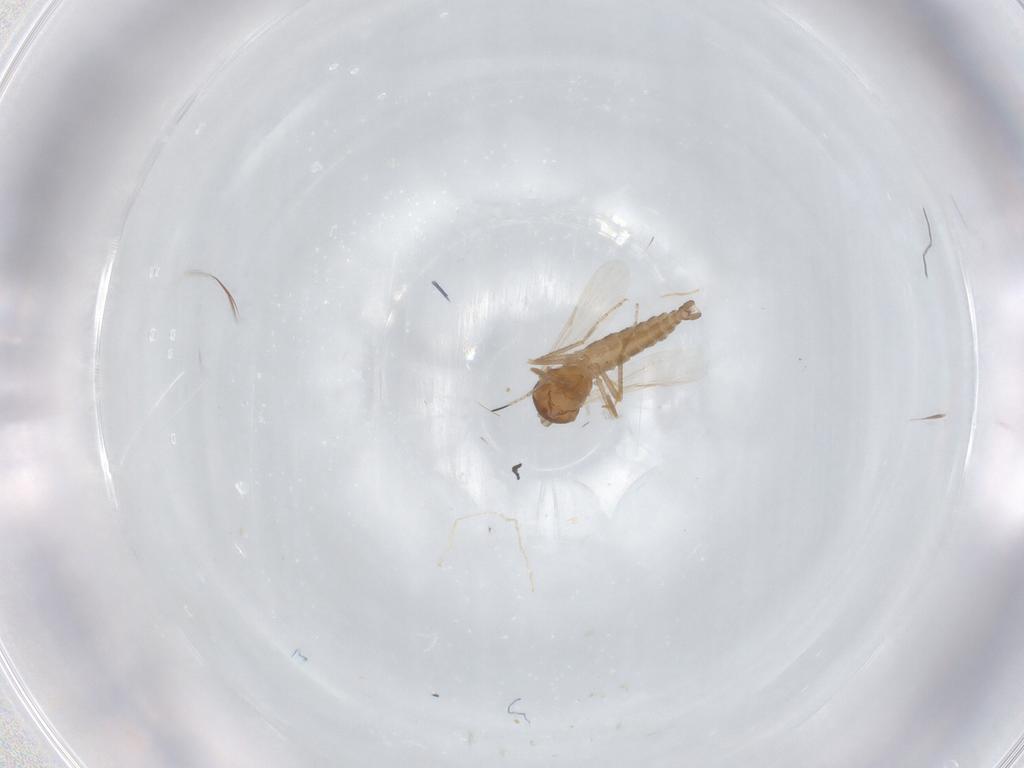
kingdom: Animalia
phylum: Arthropoda
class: Insecta
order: Diptera
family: Ceratopogonidae
